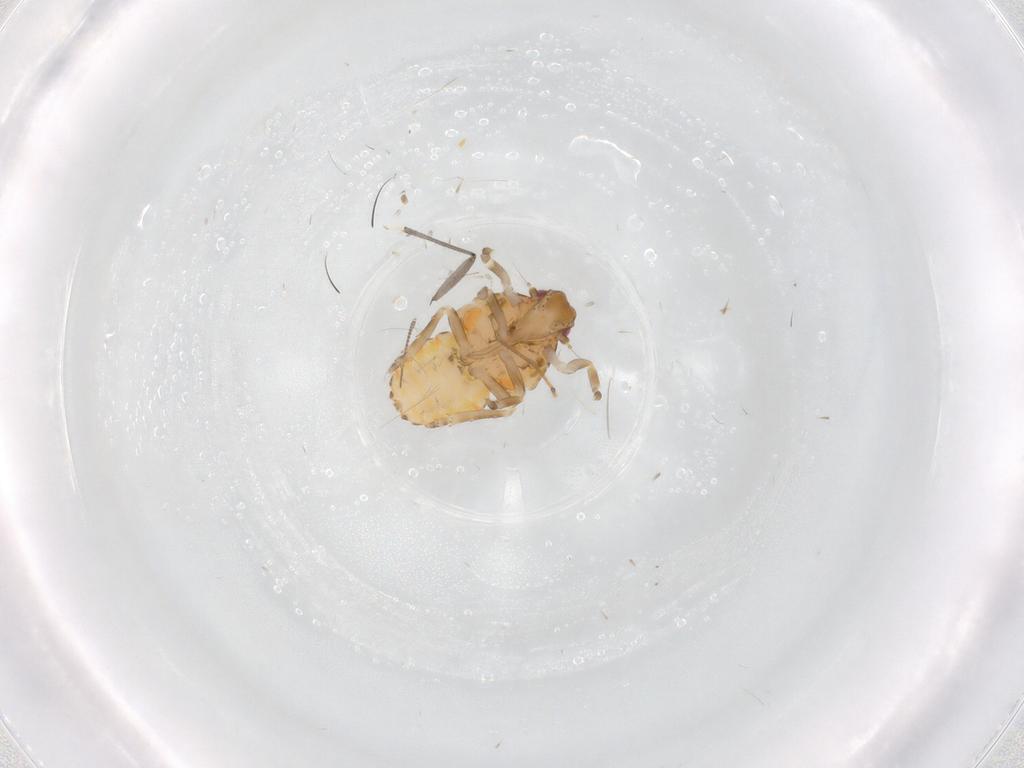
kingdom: Animalia
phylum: Arthropoda
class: Insecta
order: Hemiptera
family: Flatidae
